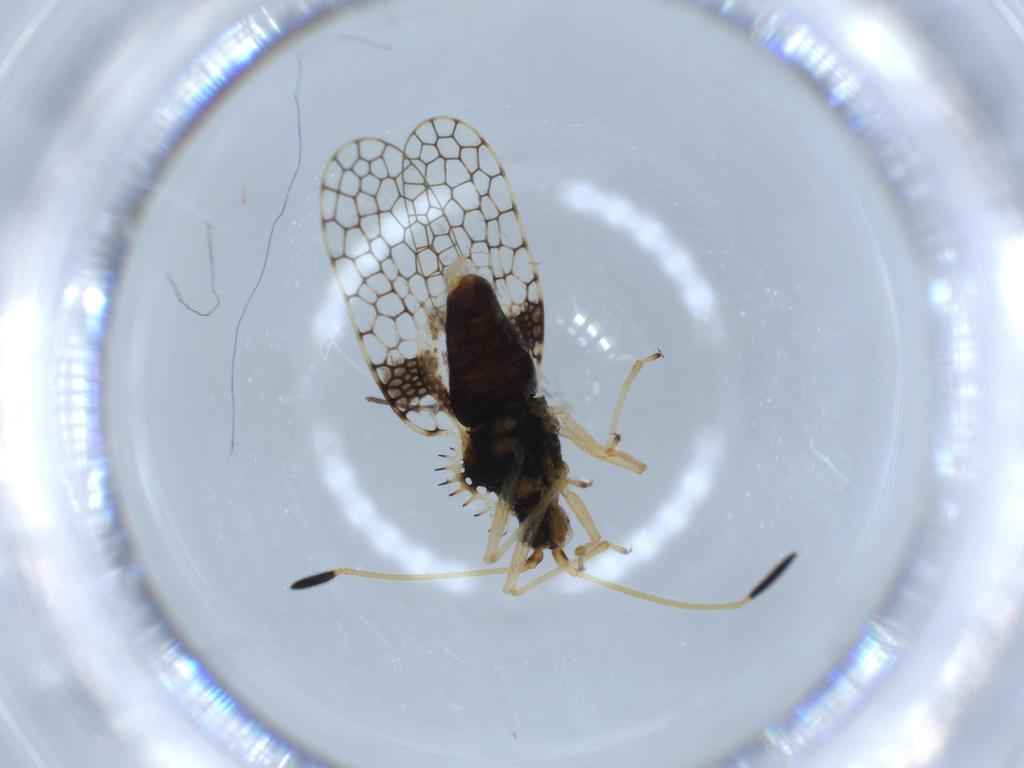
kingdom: Animalia
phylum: Arthropoda
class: Insecta
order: Hemiptera
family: Tingidae
